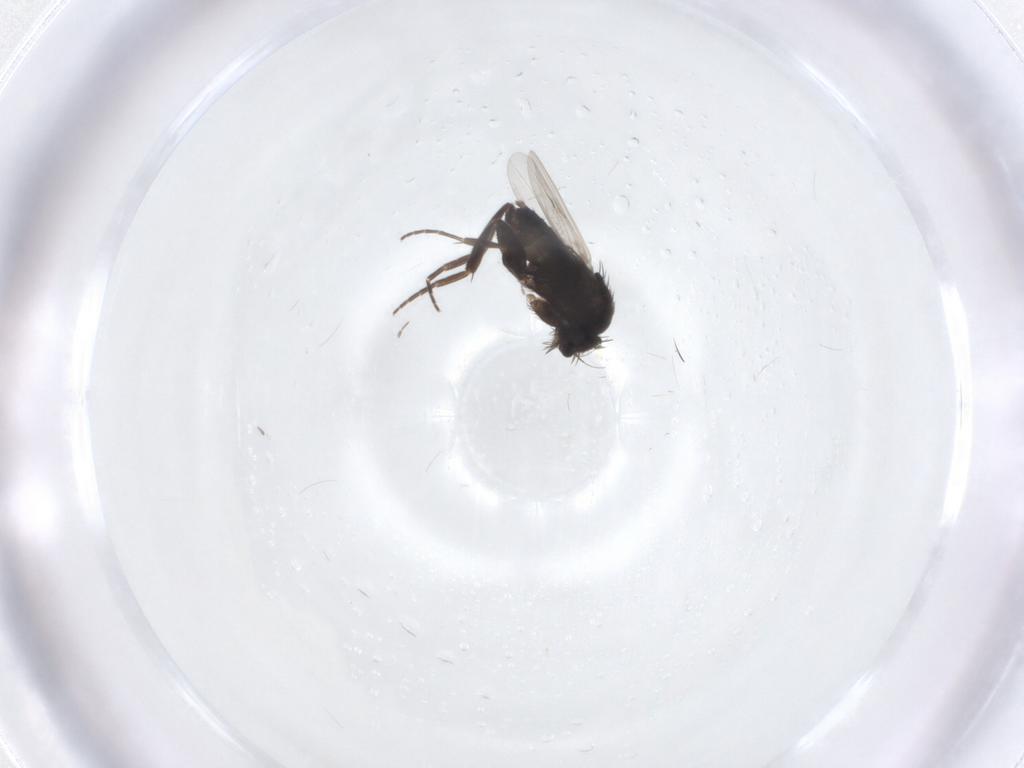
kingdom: Animalia
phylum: Arthropoda
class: Insecta
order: Diptera
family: Phoridae
